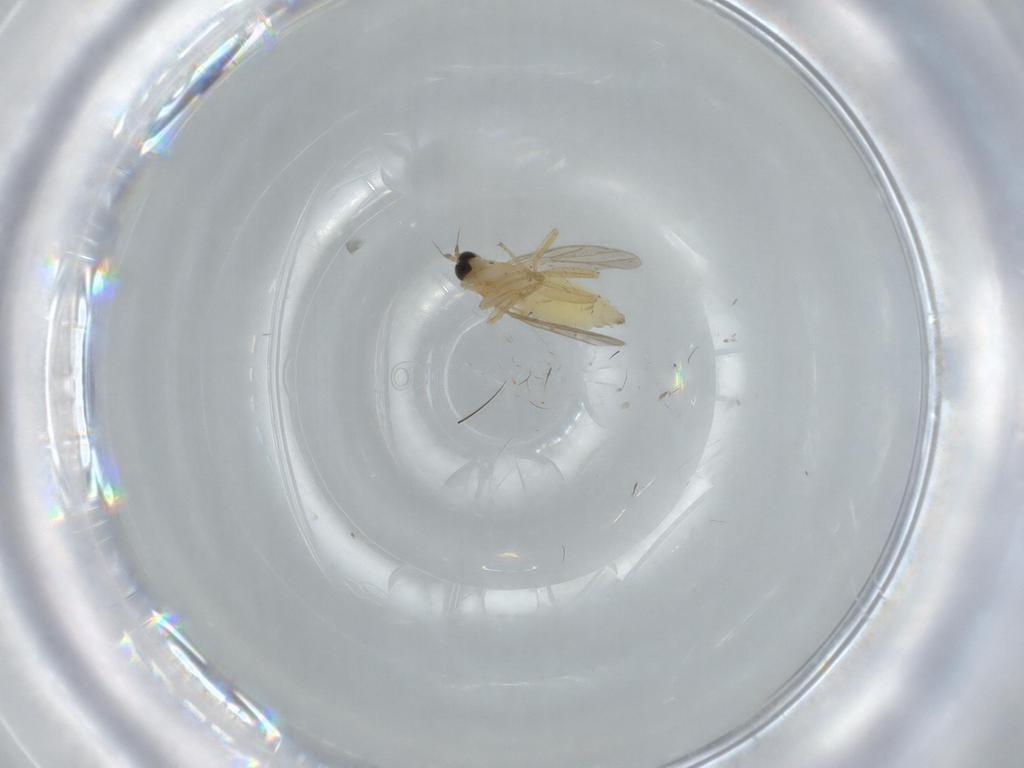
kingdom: Animalia
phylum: Arthropoda
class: Insecta
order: Diptera
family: Hybotidae
